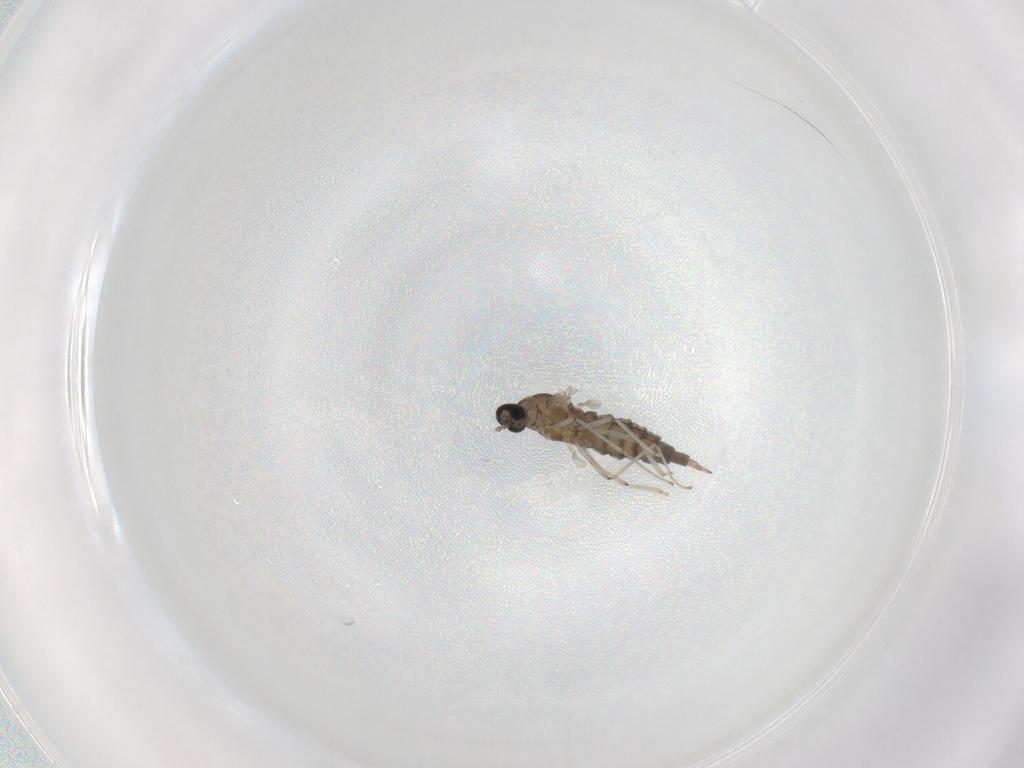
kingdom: Animalia
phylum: Arthropoda
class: Insecta
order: Diptera
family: Cecidomyiidae
